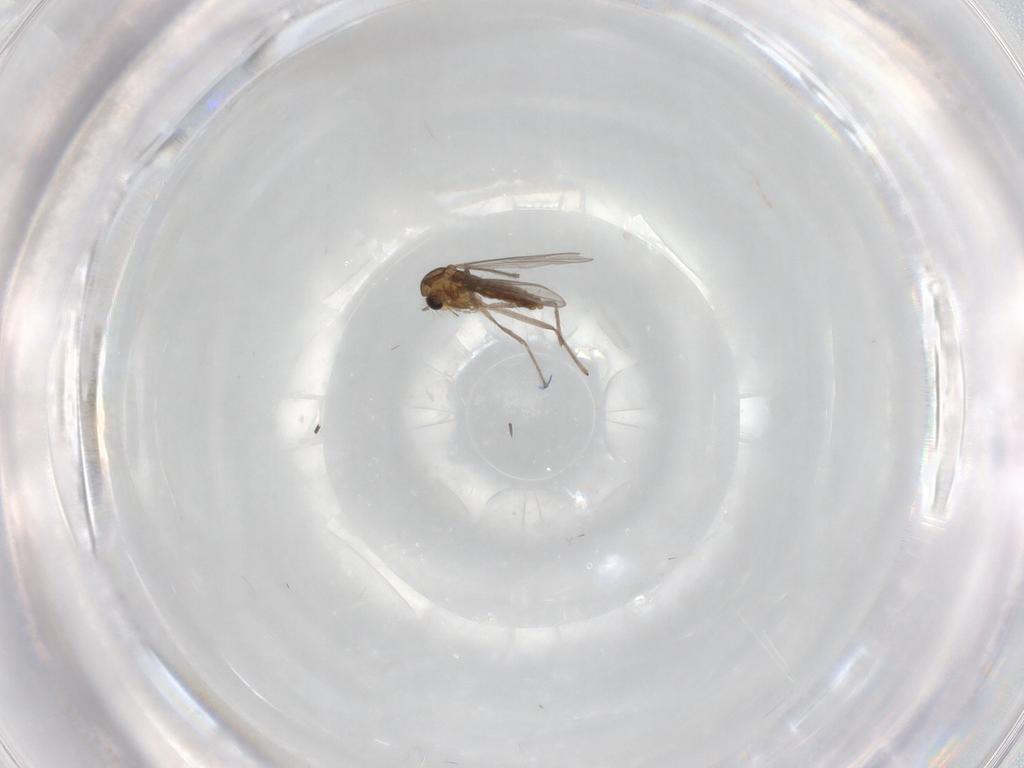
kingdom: Animalia
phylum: Arthropoda
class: Insecta
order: Diptera
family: Chironomidae
